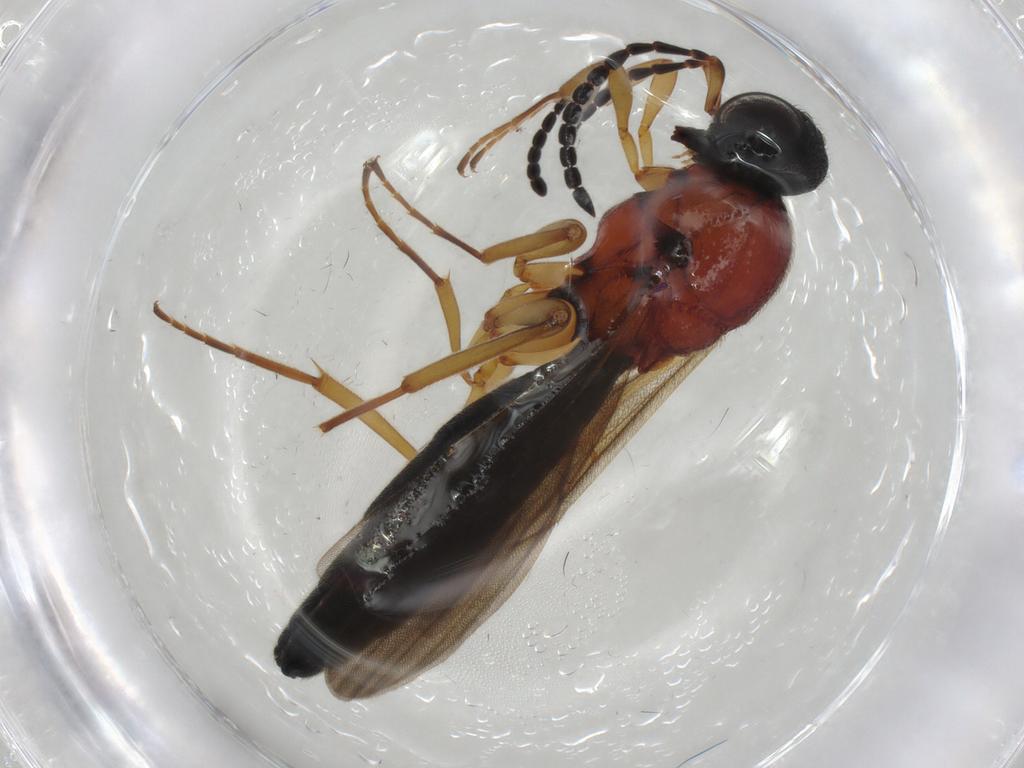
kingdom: Animalia
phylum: Arthropoda
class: Insecta
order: Hymenoptera
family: Scelionidae
